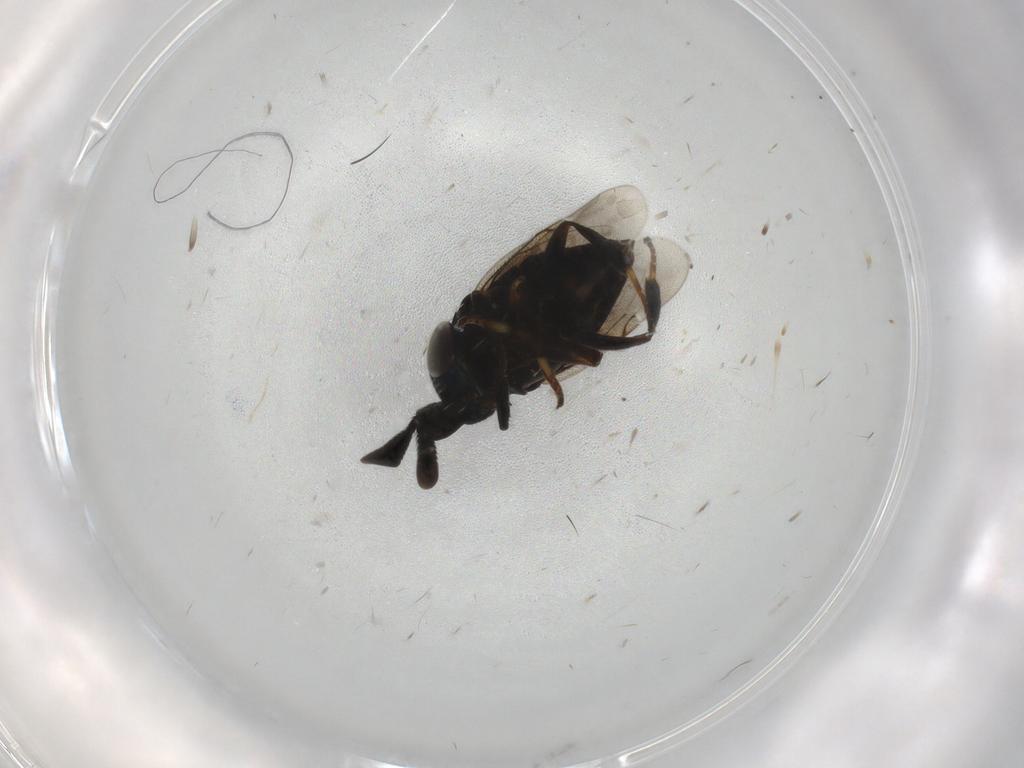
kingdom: Animalia
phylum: Arthropoda
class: Insecta
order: Hymenoptera
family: Encyrtidae
